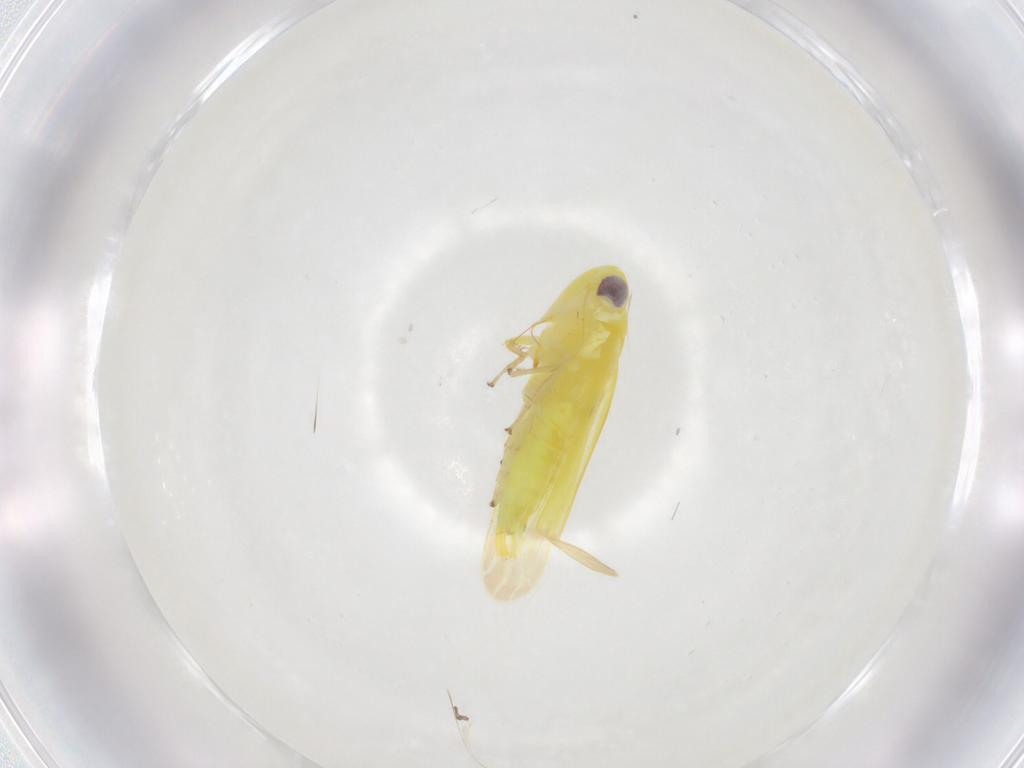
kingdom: Animalia
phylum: Arthropoda
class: Insecta
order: Hemiptera
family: Cicadellidae
